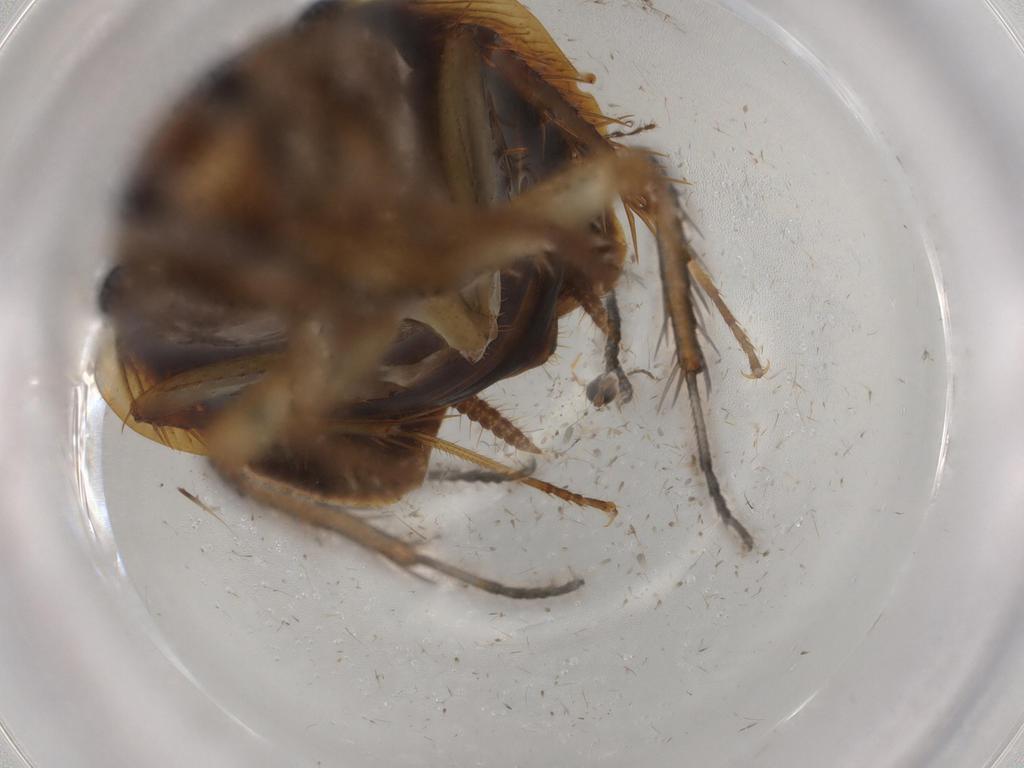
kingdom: Animalia
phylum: Arthropoda
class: Insecta
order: Blattodea
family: Ectobiidae
